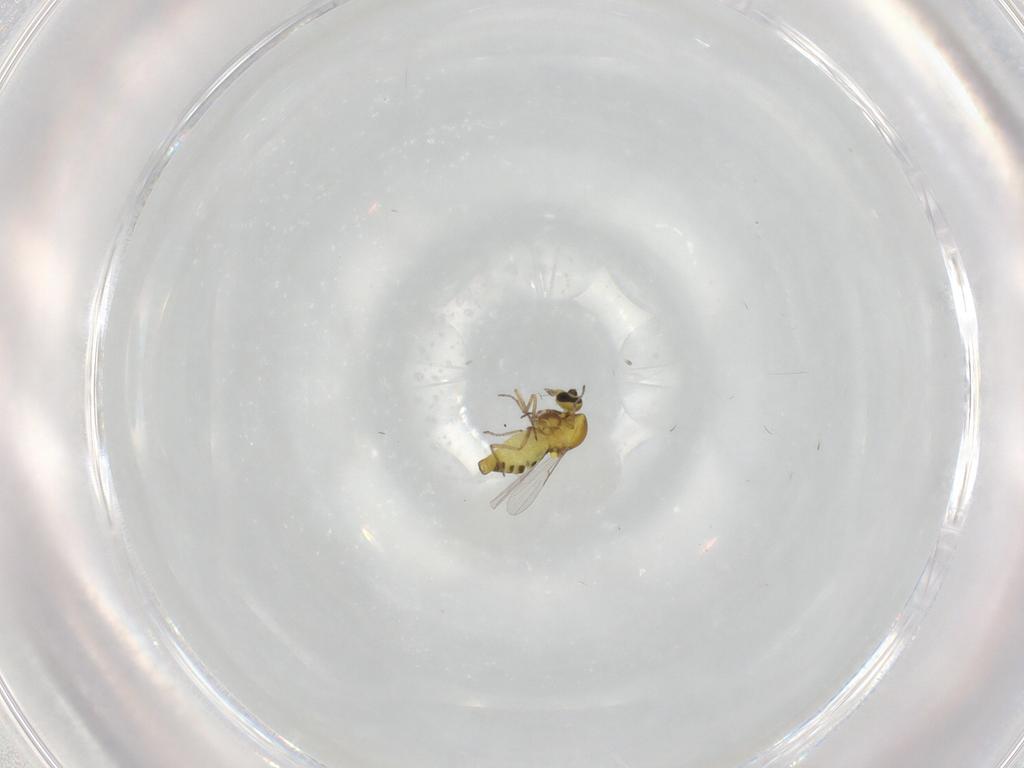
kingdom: Animalia
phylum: Arthropoda
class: Insecta
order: Diptera
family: Ceratopogonidae
